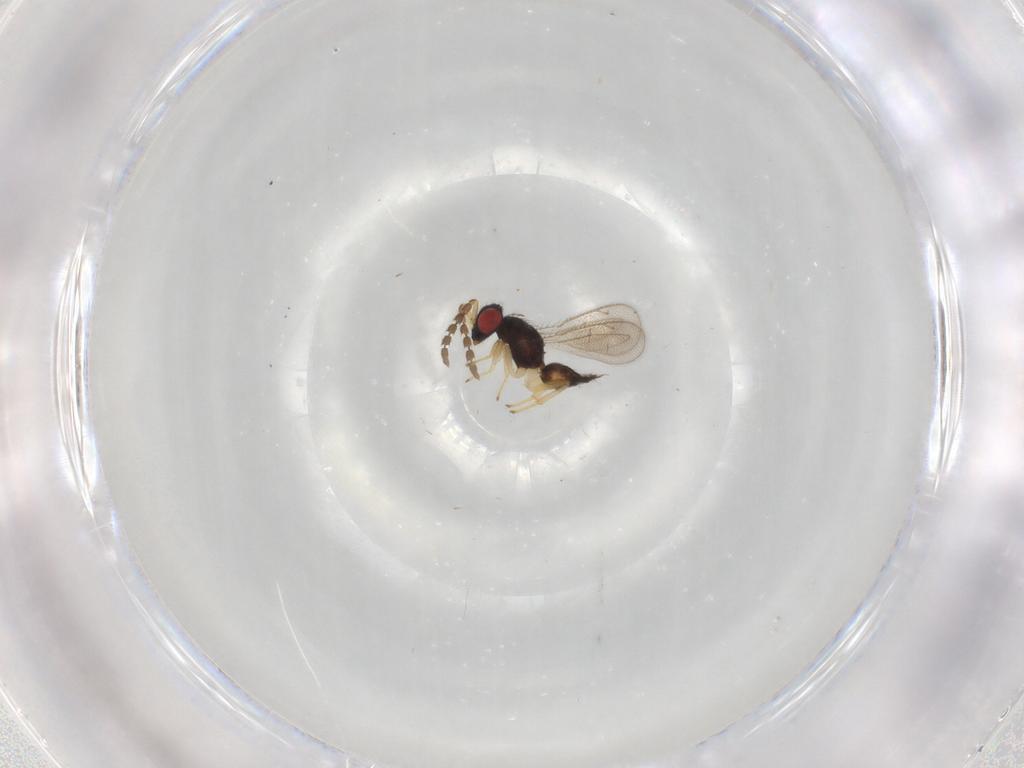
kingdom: Animalia
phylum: Arthropoda
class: Insecta
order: Hymenoptera
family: Eulophidae
